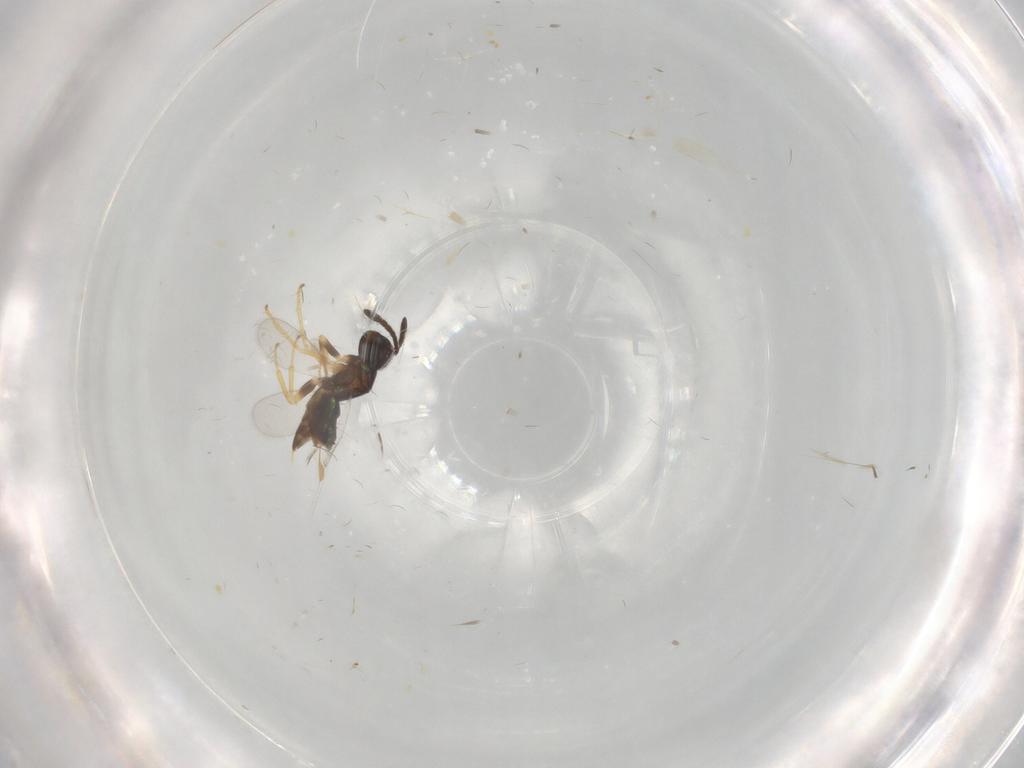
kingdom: Animalia
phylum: Arthropoda
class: Insecta
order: Hymenoptera
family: Encyrtidae
